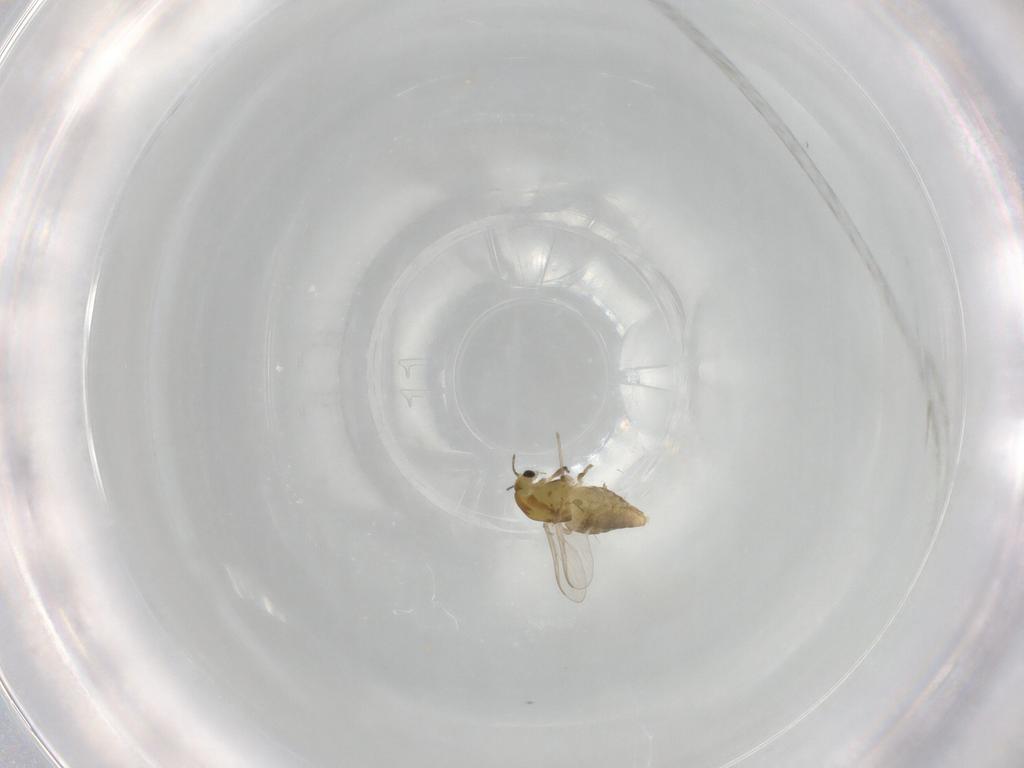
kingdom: Animalia
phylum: Arthropoda
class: Insecta
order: Diptera
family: Chironomidae
